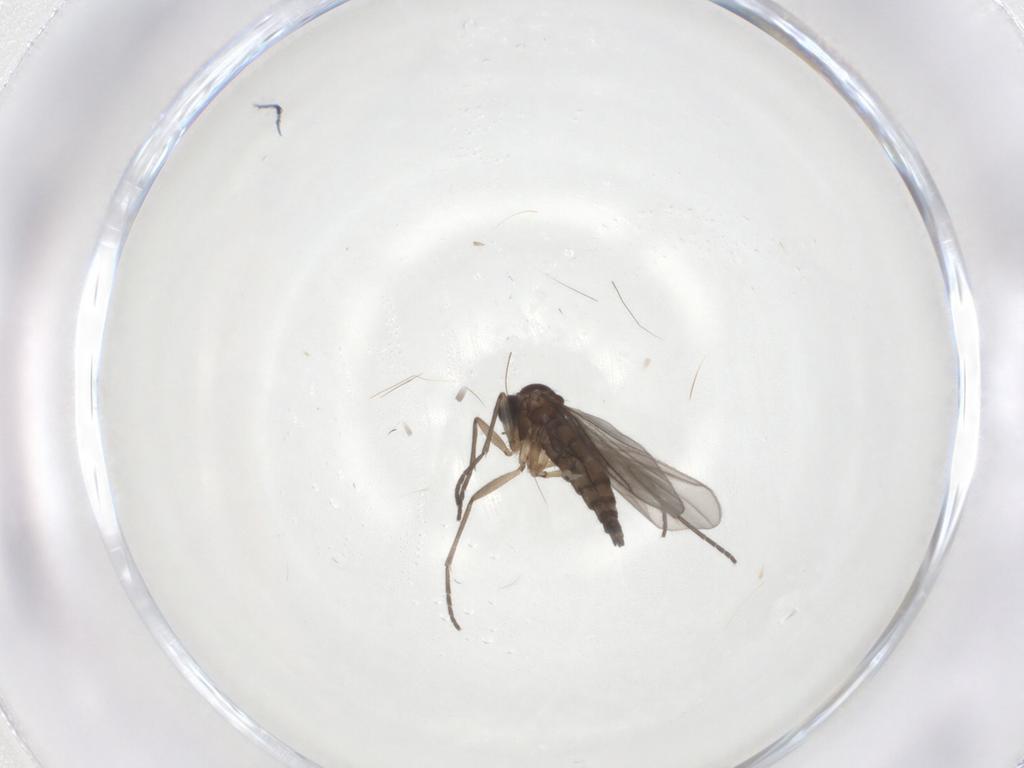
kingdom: Animalia
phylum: Arthropoda
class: Insecta
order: Diptera
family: Sciaridae
